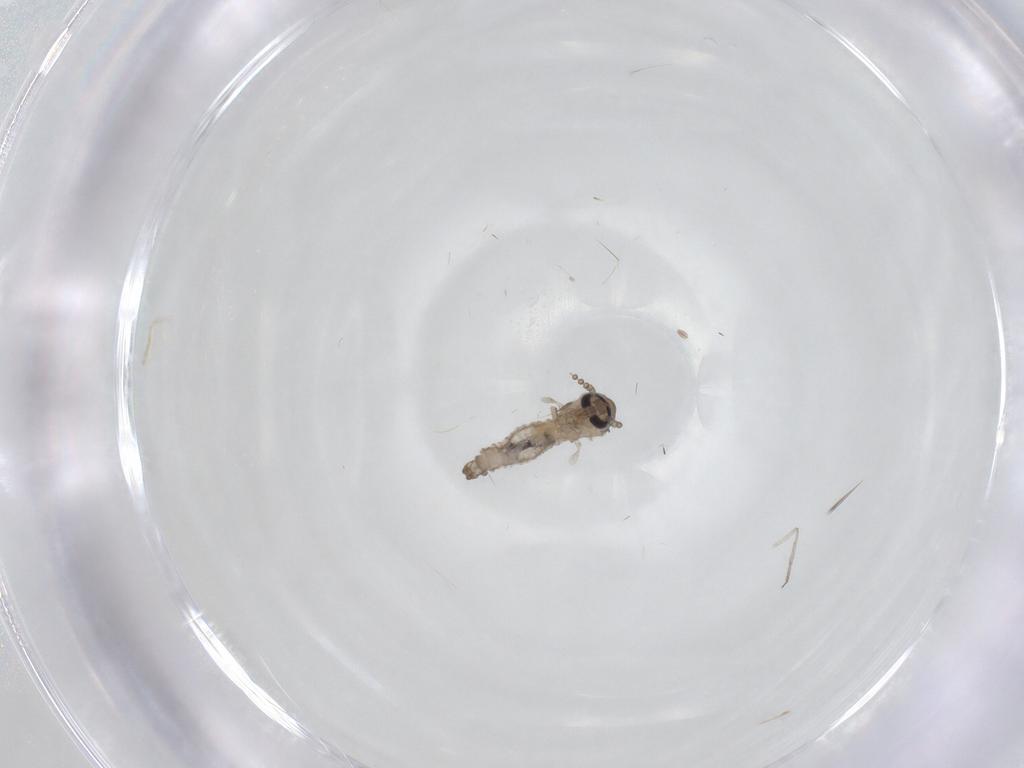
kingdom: Animalia
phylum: Arthropoda
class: Insecta
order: Diptera
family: Psychodidae
